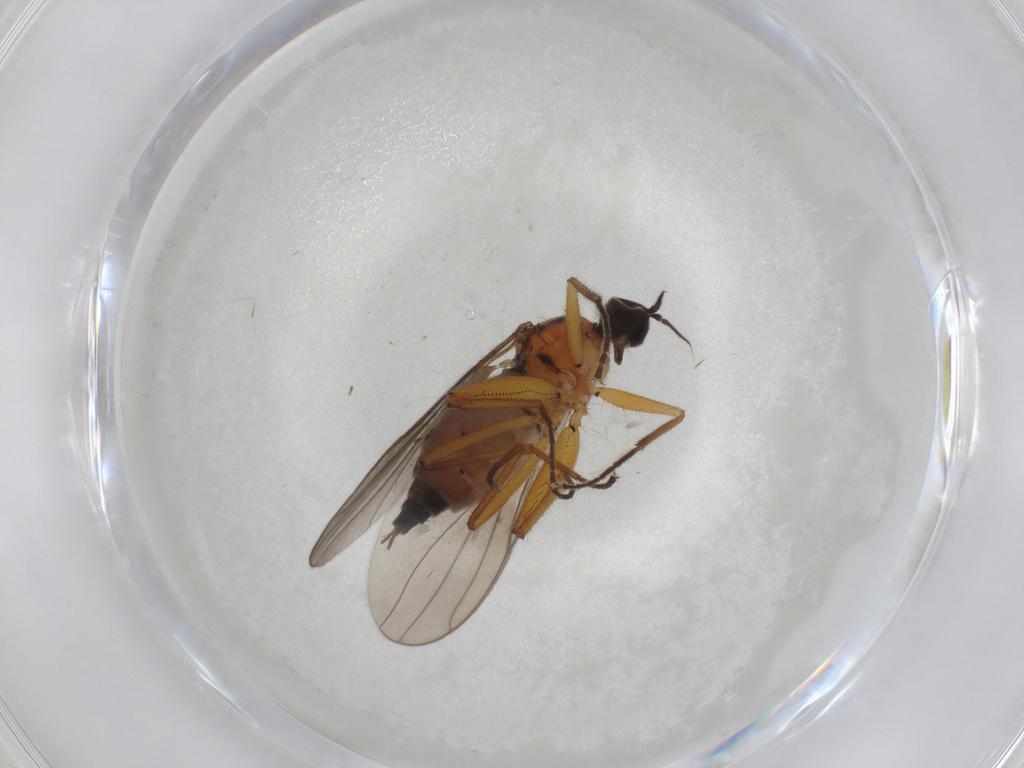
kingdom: Animalia
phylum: Arthropoda
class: Insecta
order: Diptera
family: Hybotidae
